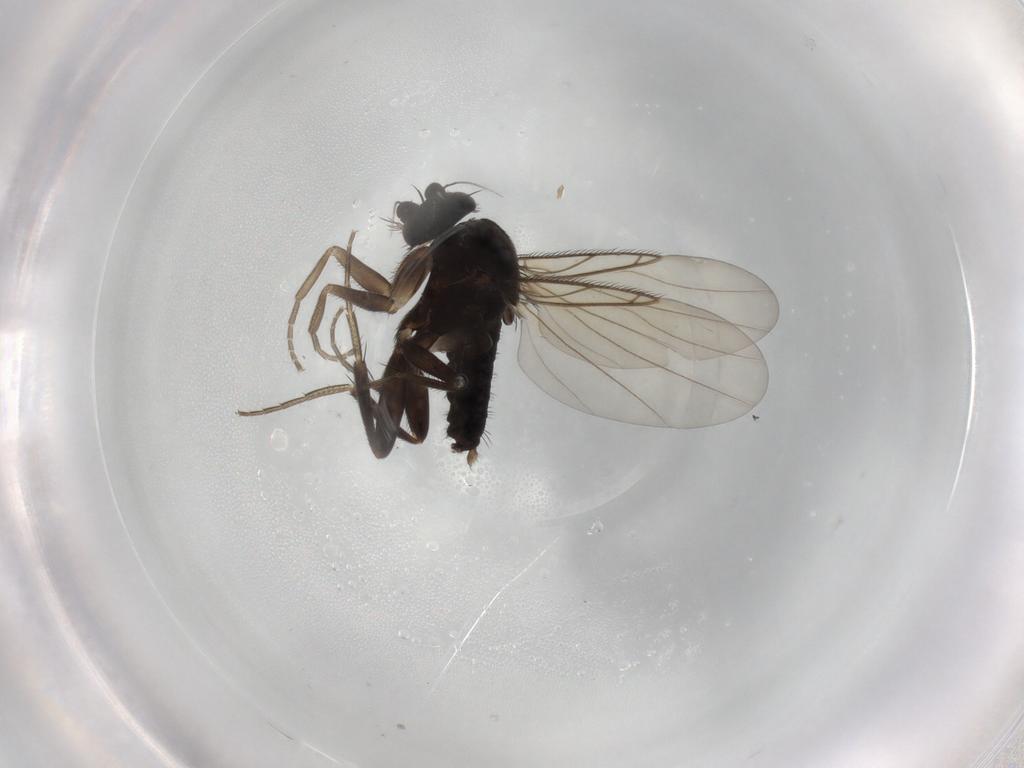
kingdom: Animalia
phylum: Arthropoda
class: Insecta
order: Diptera
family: Phoridae
